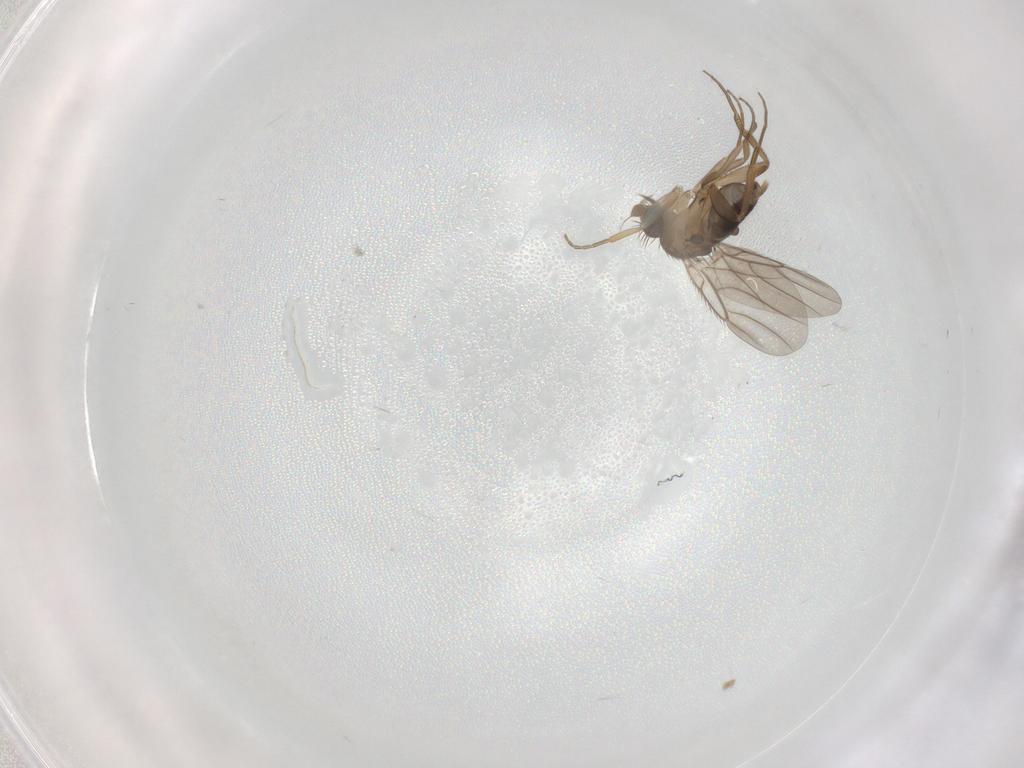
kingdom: Animalia
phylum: Arthropoda
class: Insecta
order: Diptera
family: Phoridae
